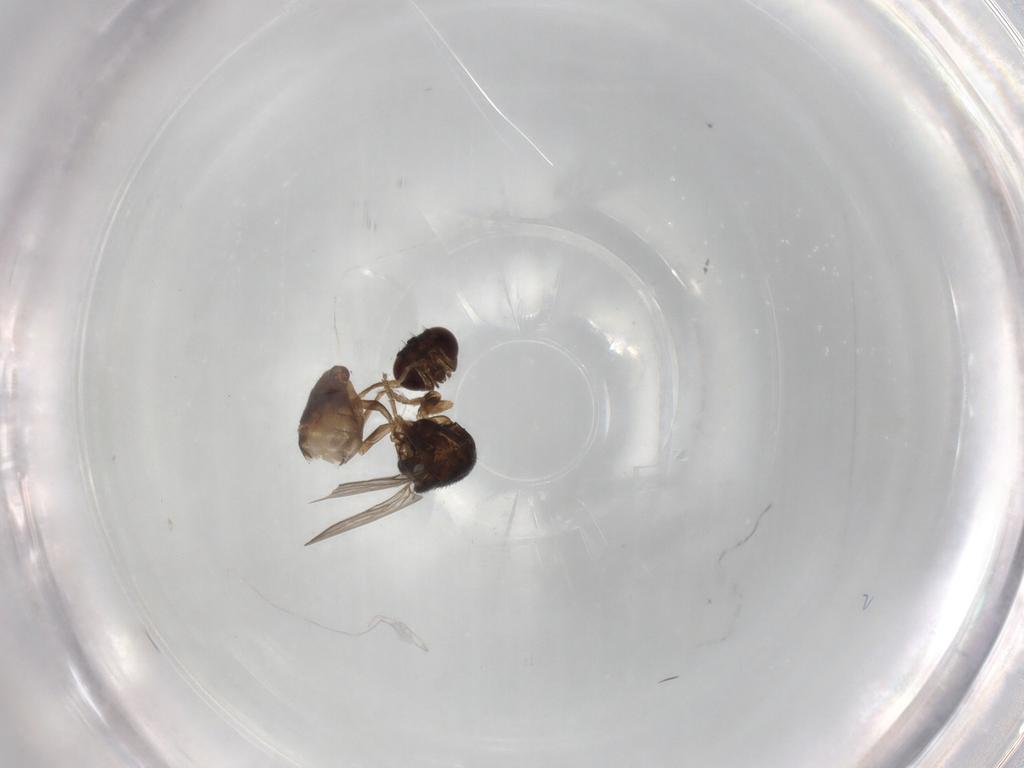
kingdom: Animalia
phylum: Arthropoda
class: Insecta
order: Diptera
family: Chloropidae
